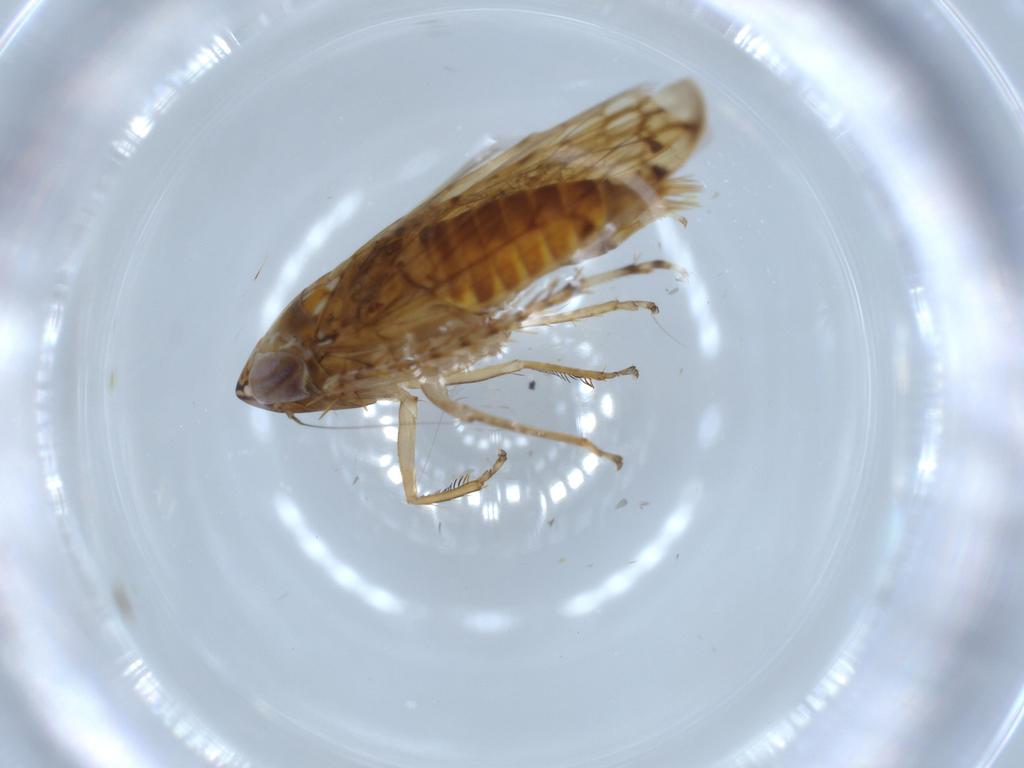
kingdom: Animalia
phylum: Arthropoda
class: Insecta
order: Hemiptera
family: Cicadellidae
